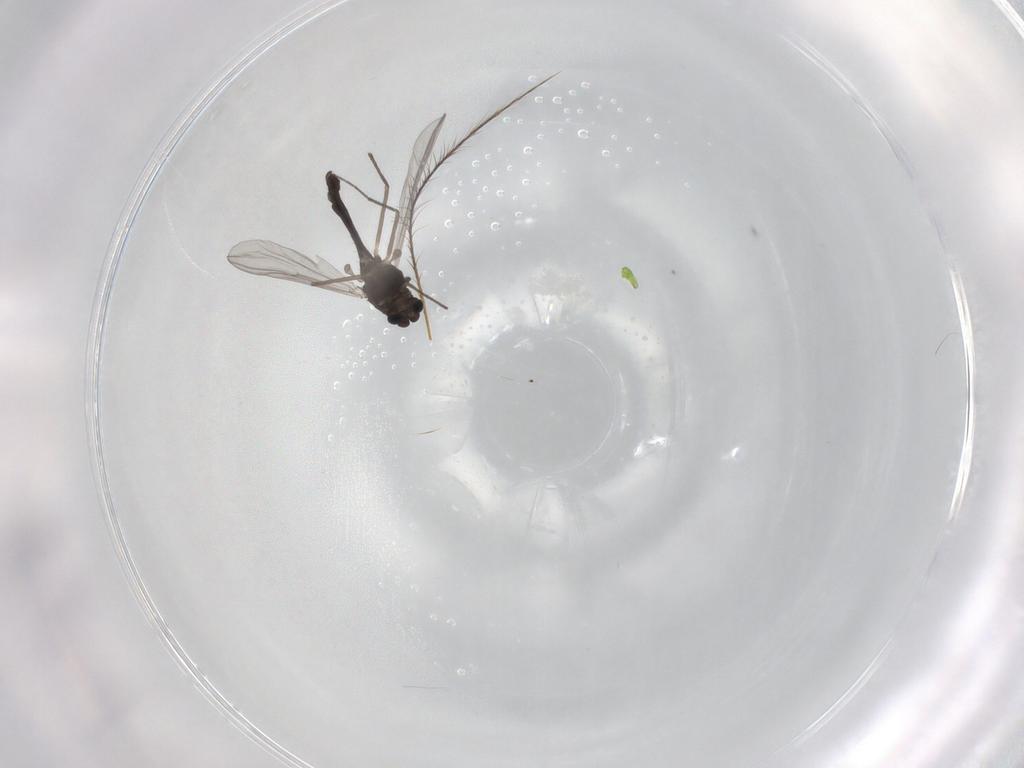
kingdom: Animalia
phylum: Arthropoda
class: Insecta
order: Diptera
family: Chironomidae
